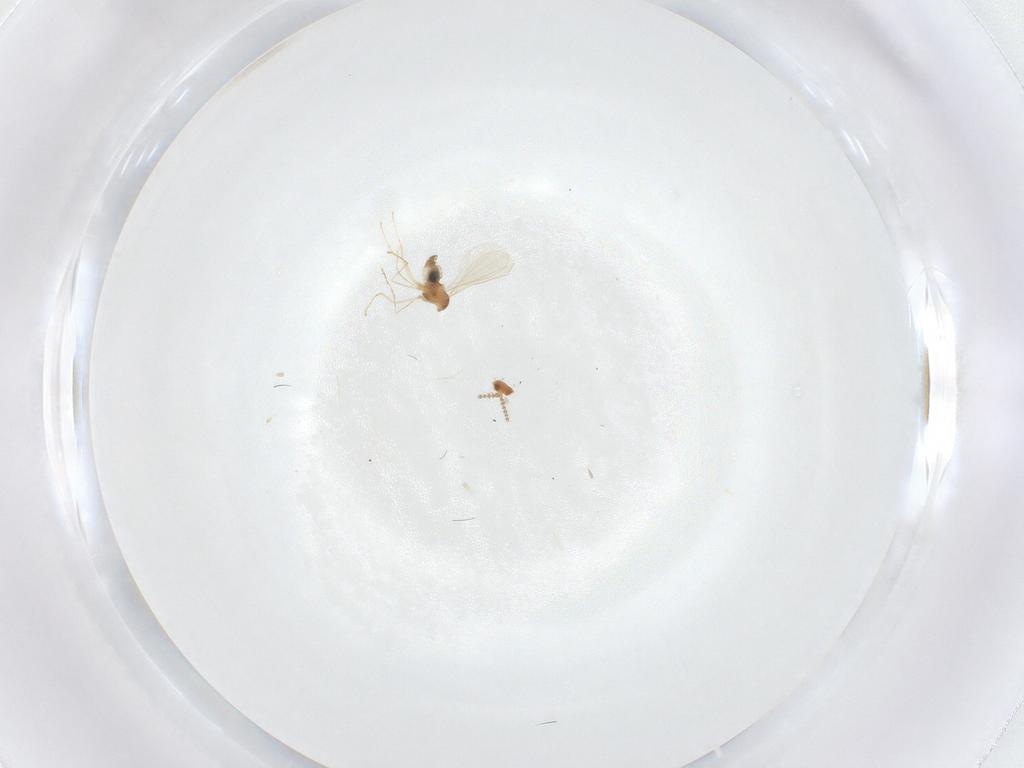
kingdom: Animalia
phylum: Arthropoda
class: Insecta
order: Diptera
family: Cecidomyiidae
